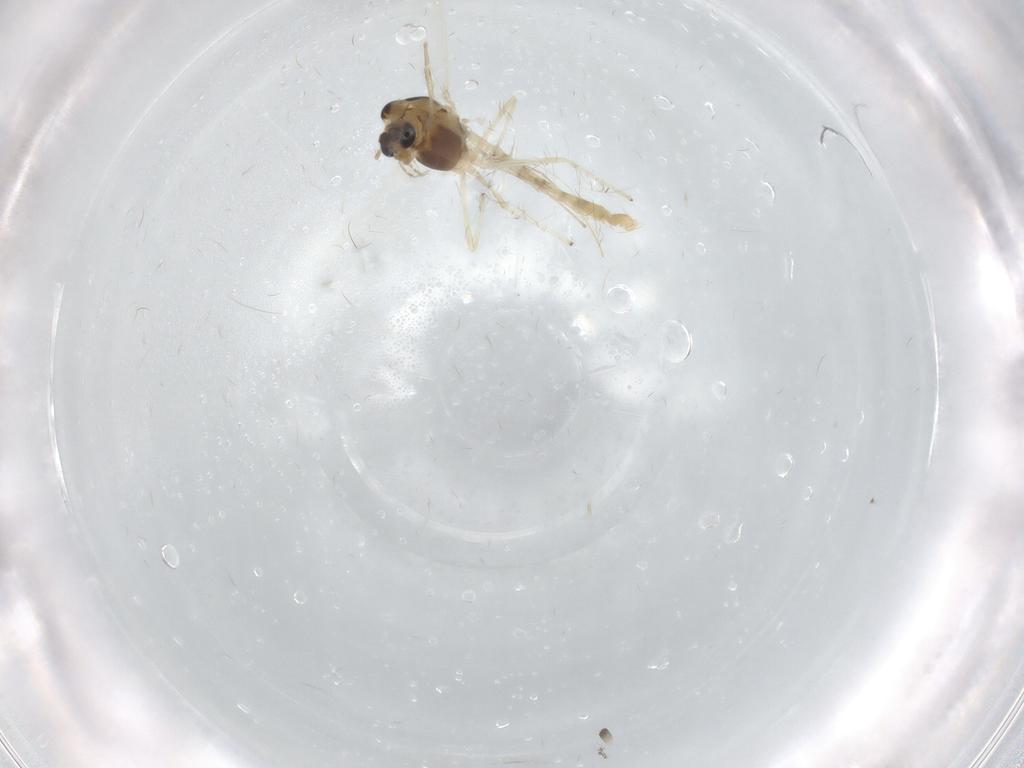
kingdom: Animalia
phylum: Arthropoda
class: Insecta
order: Diptera
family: Chironomidae
